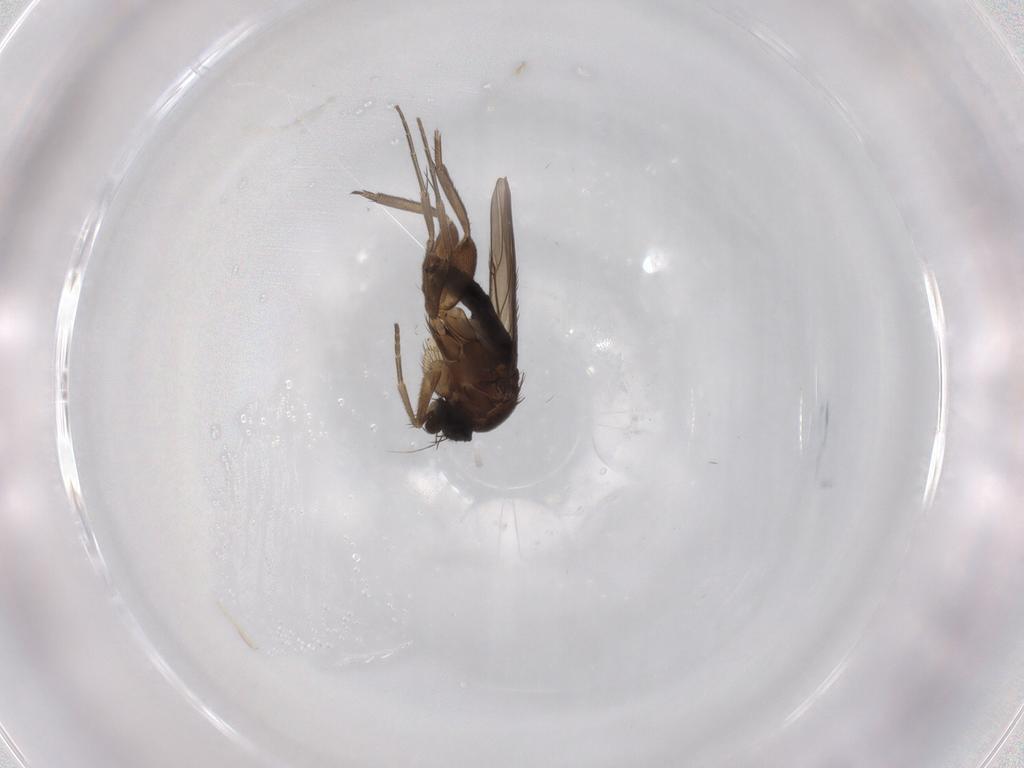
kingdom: Animalia
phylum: Arthropoda
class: Insecta
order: Diptera
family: Phoridae
